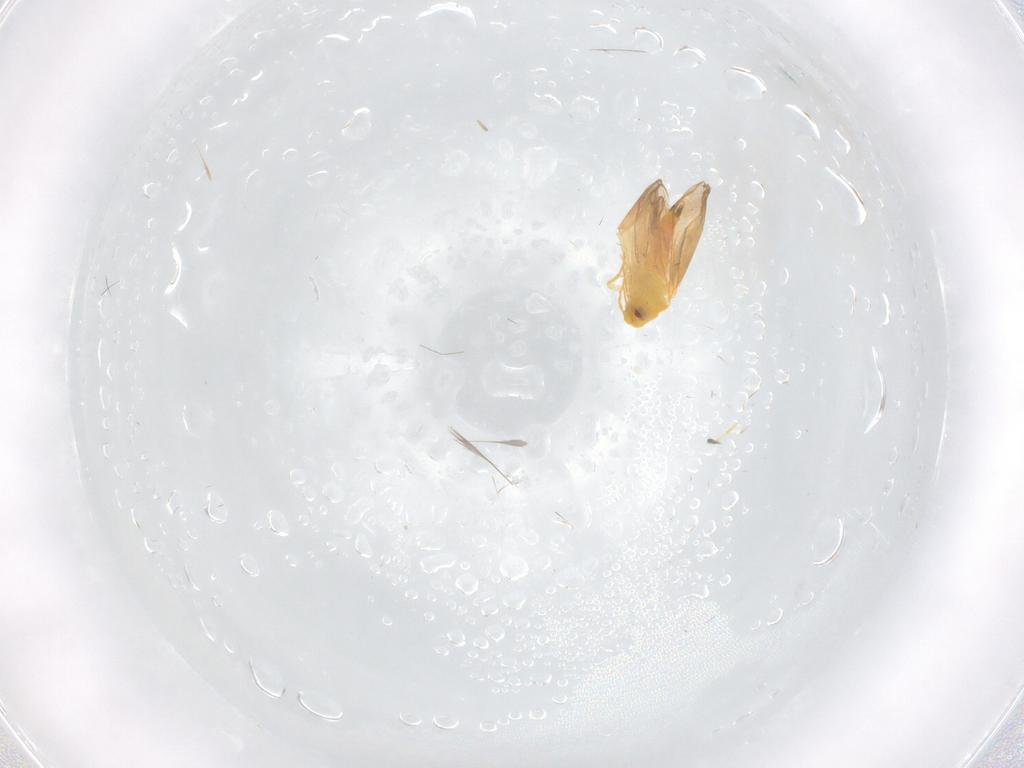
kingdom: Animalia
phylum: Arthropoda
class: Insecta
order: Hemiptera
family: Aleyrodidae
